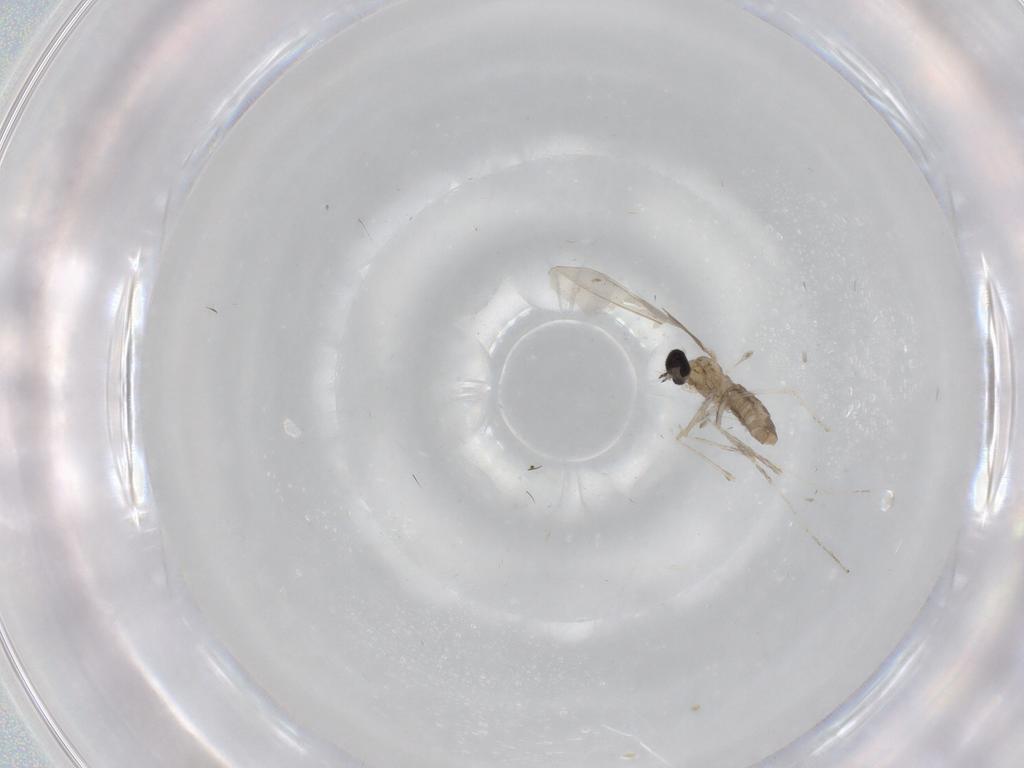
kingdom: Animalia
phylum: Arthropoda
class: Insecta
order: Diptera
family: Cecidomyiidae
